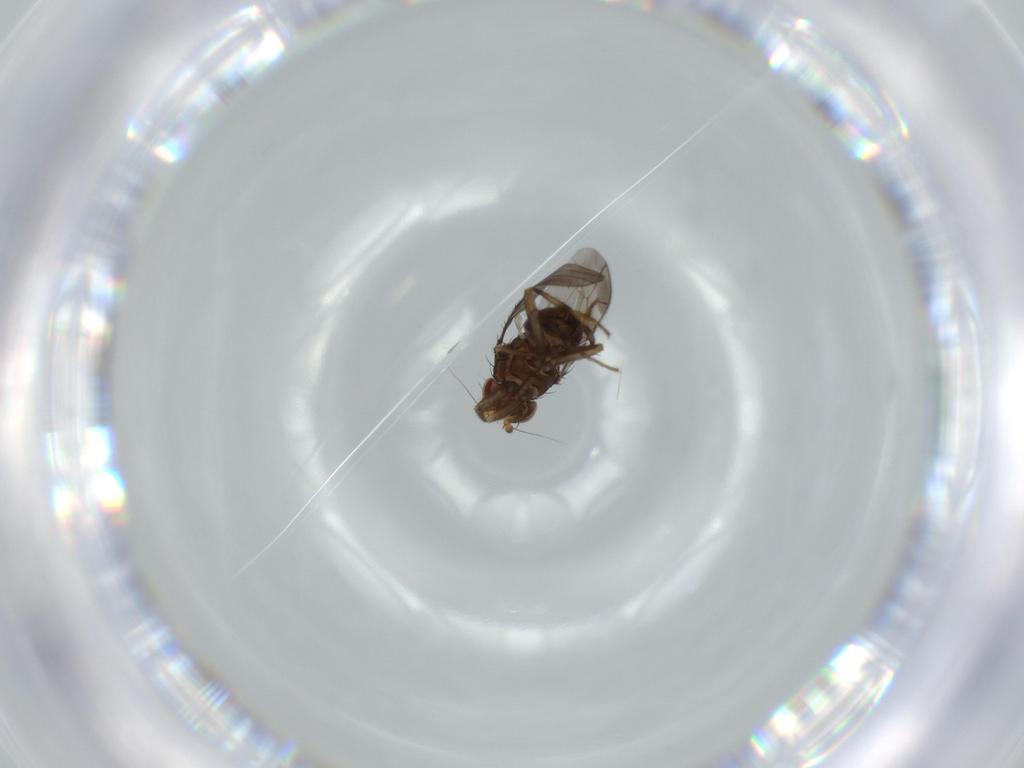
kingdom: Animalia
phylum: Arthropoda
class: Insecta
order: Diptera
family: Sphaeroceridae
